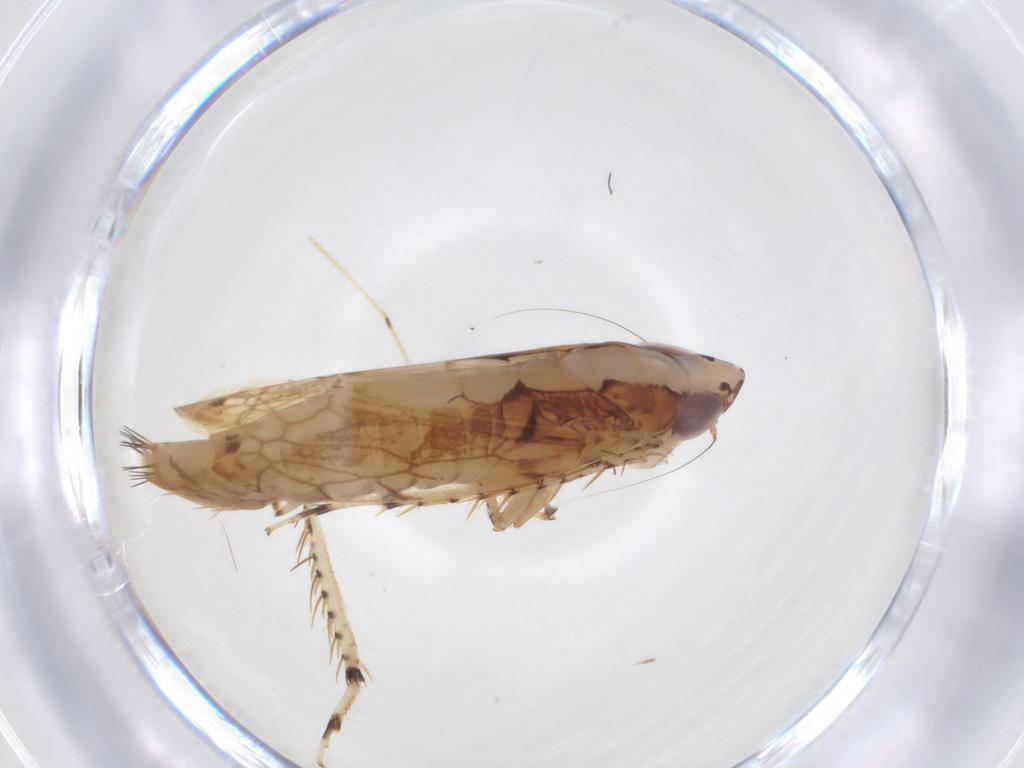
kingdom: Animalia
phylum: Arthropoda
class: Insecta
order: Hemiptera
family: Cicadellidae
